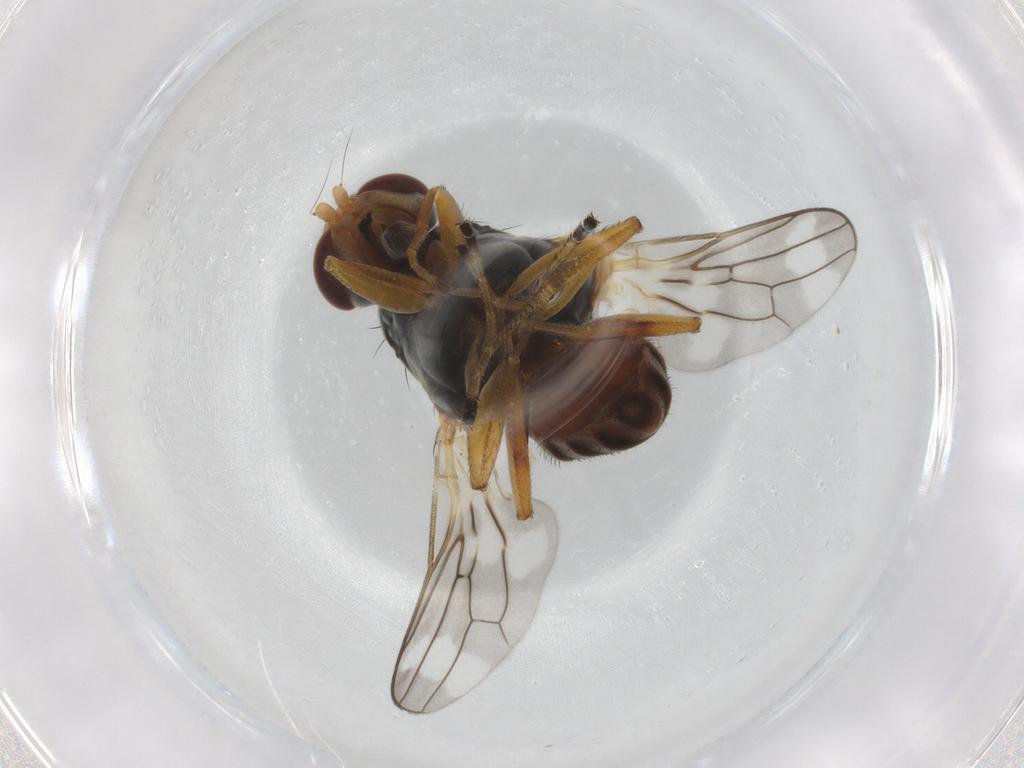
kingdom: Animalia
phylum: Arthropoda
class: Insecta
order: Diptera
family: Chloropidae
